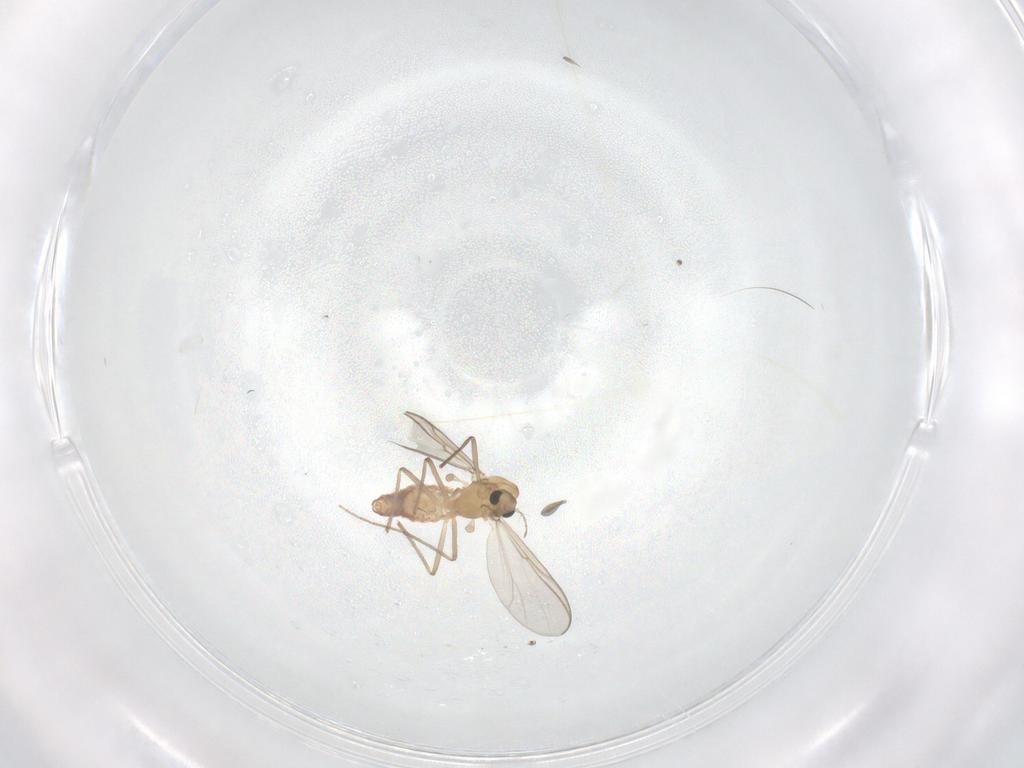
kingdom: Animalia
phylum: Arthropoda
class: Insecta
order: Diptera
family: Chironomidae
